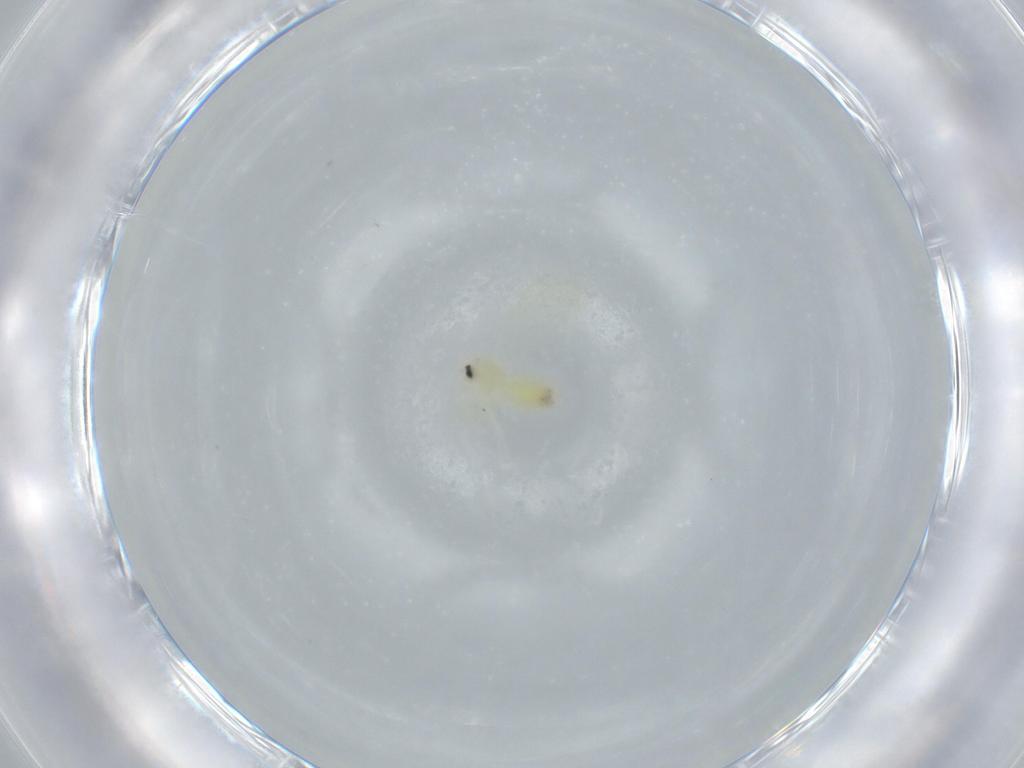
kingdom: Animalia
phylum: Arthropoda
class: Insecta
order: Hemiptera
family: Aleyrodidae
